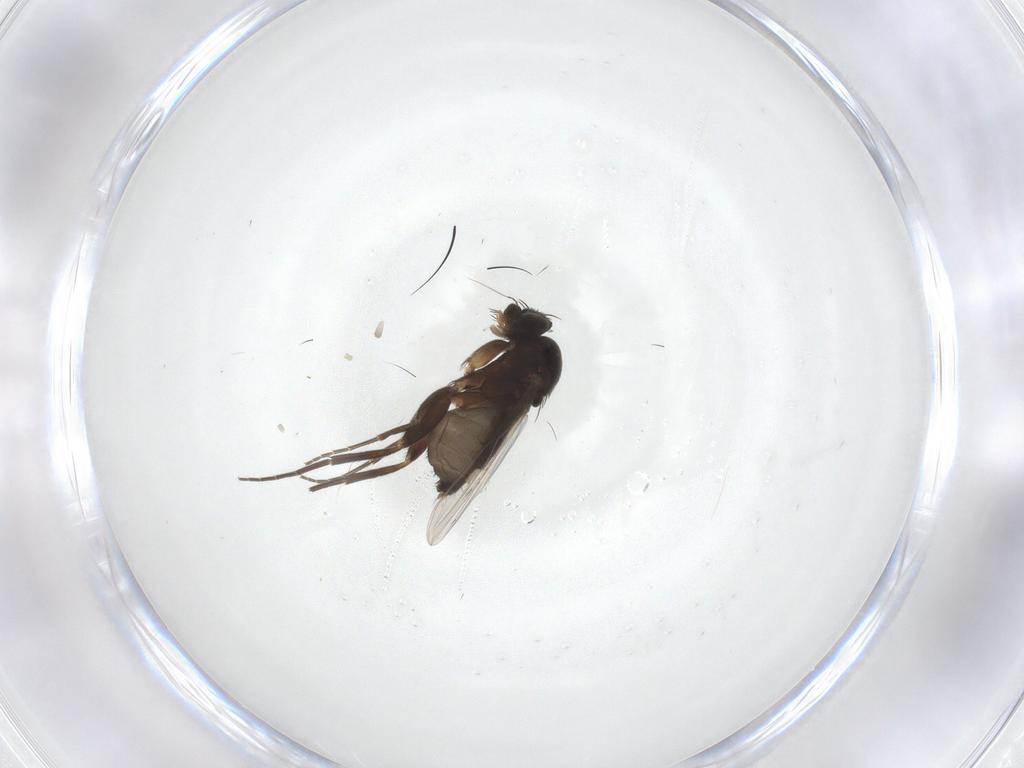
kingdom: Animalia
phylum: Arthropoda
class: Insecta
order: Diptera
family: Phoridae
